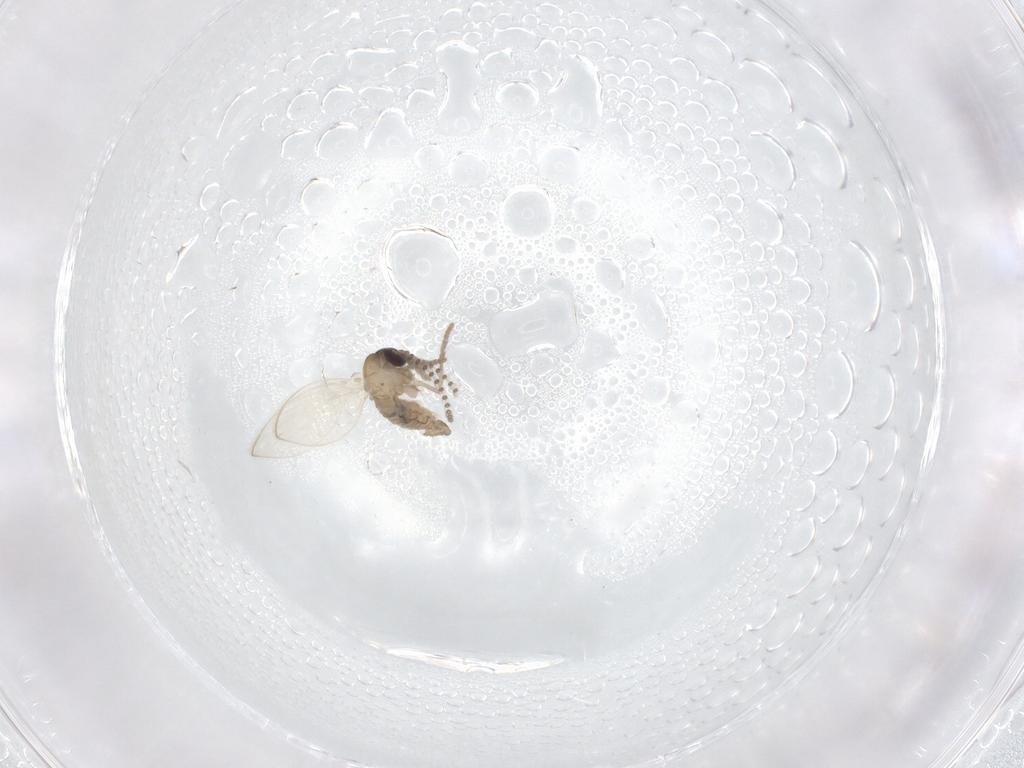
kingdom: Animalia
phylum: Arthropoda
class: Insecta
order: Diptera
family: Psychodidae
